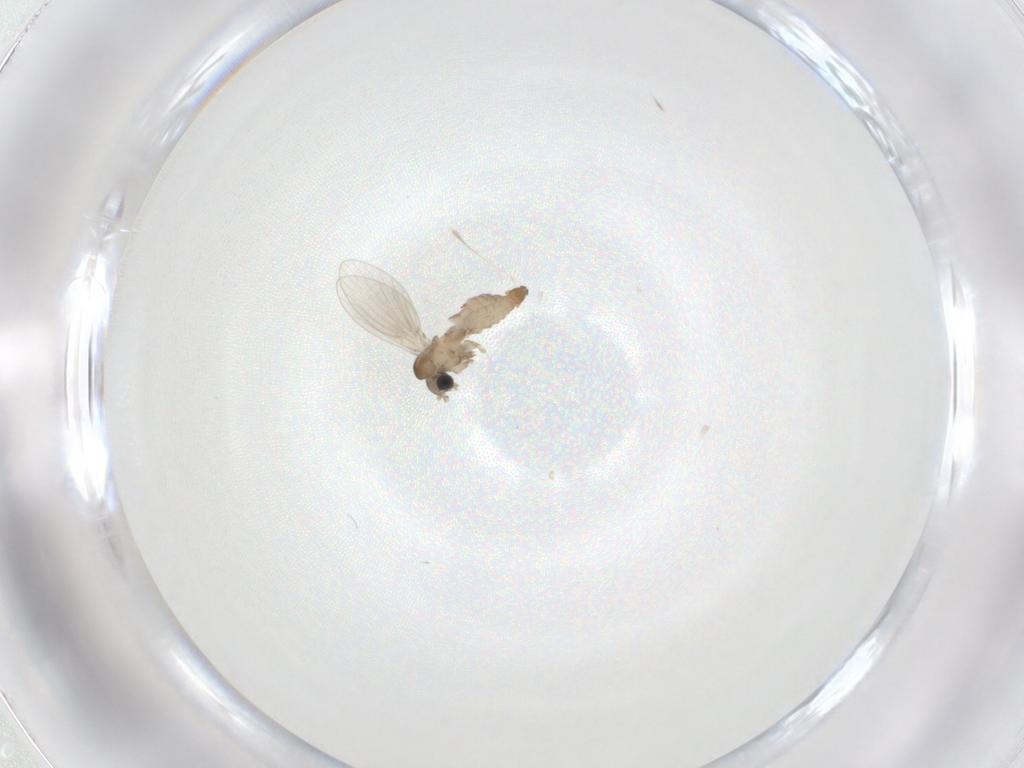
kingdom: Animalia
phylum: Arthropoda
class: Insecta
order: Diptera
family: Psychodidae
